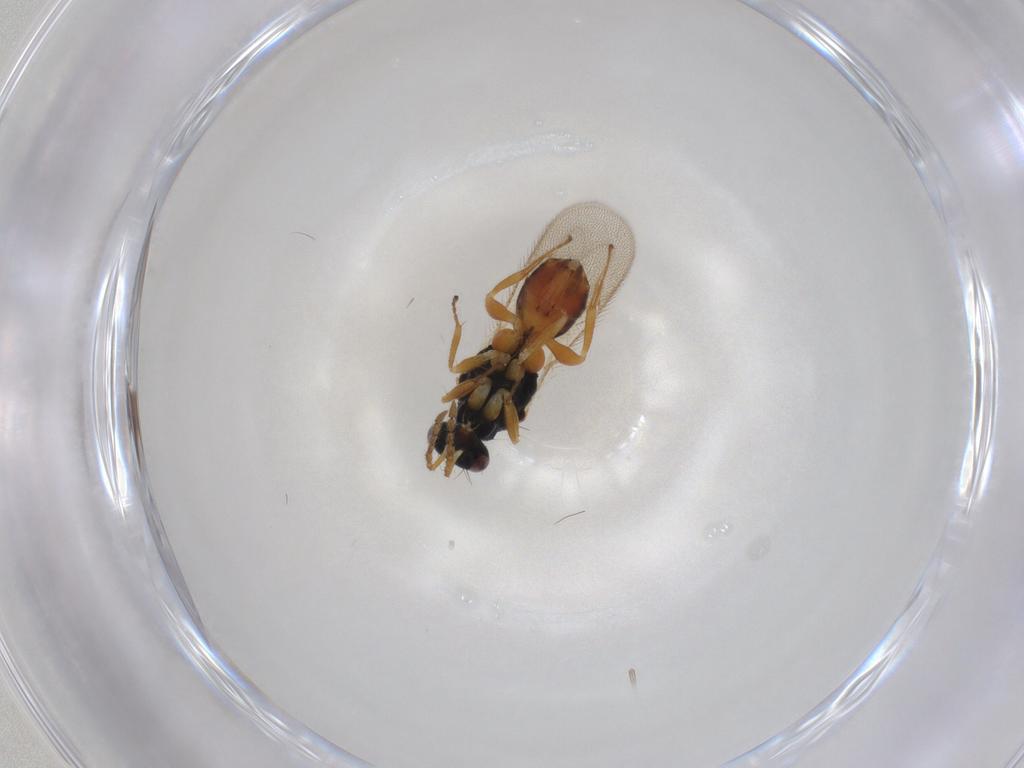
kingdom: Animalia
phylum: Arthropoda
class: Insecta
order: Hymenoptera
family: Eulophidae
